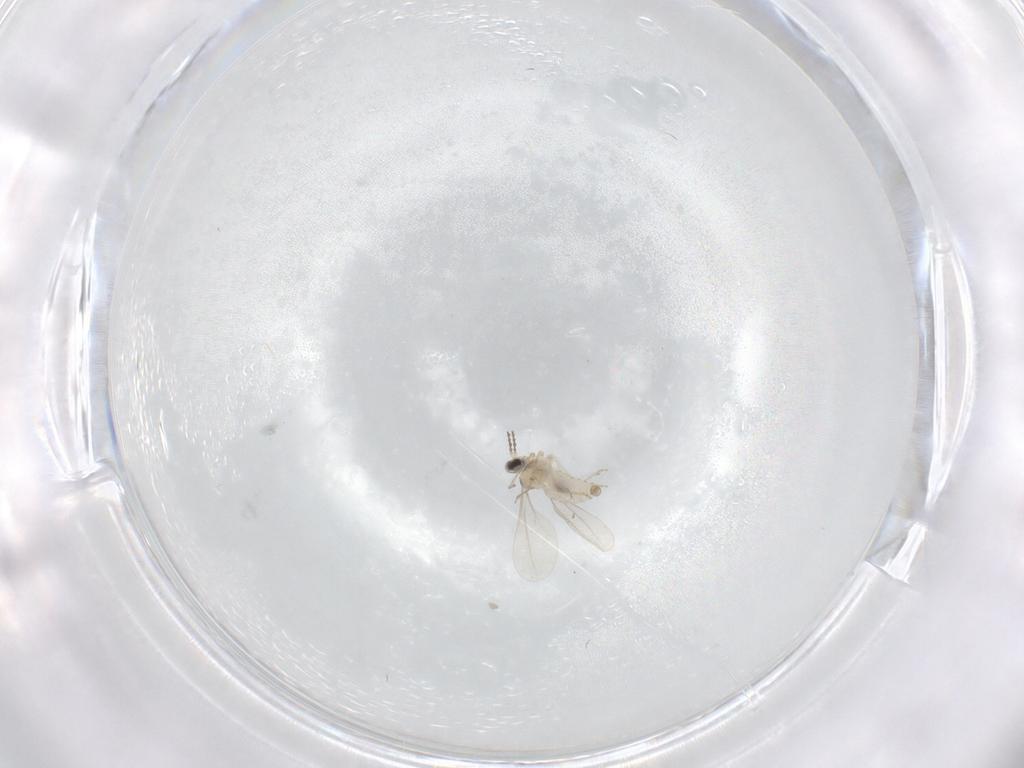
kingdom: Animalia
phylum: Arthropoda
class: Insecta
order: Diptera
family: Cecidomyiidae
